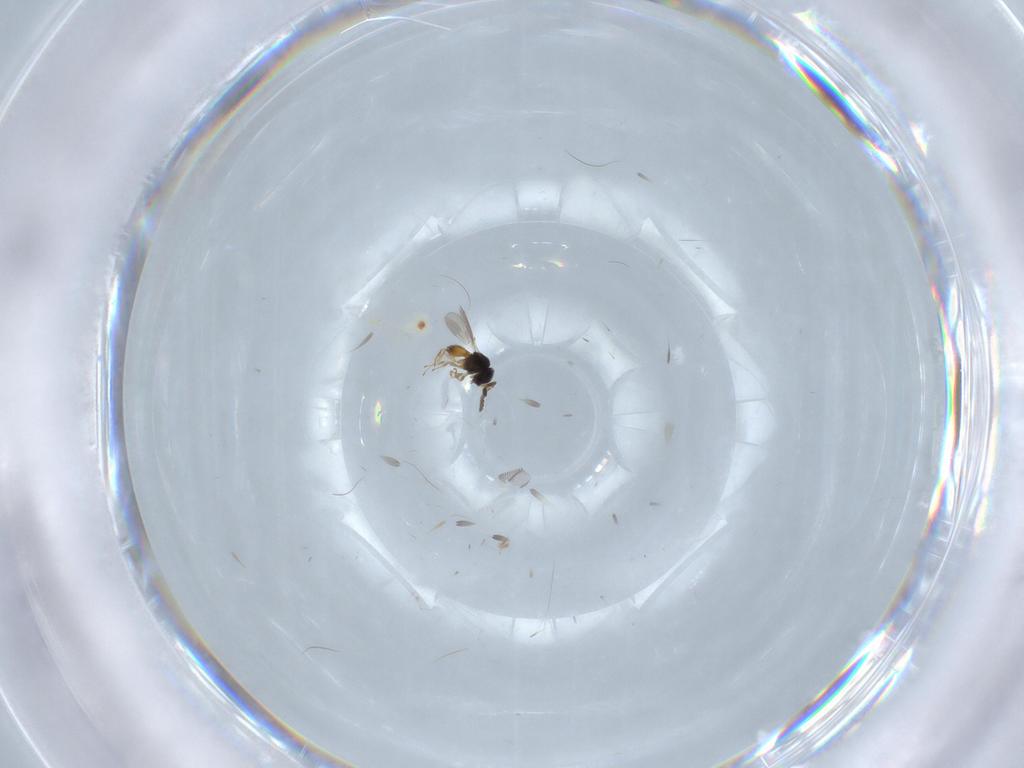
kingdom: Animalia
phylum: Arthropoda
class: Insecta
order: Hymenoptera
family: Scelionidae
